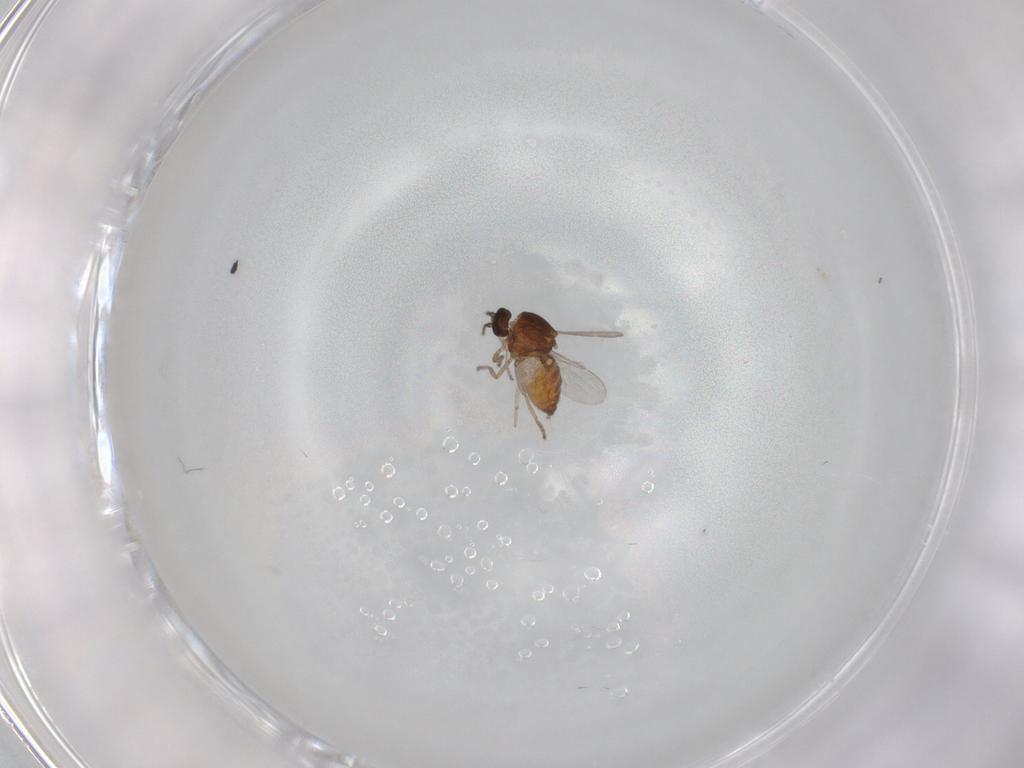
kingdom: Animalia
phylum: Arthropoda
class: Insecta
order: Diptera
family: Ceratopogonidae
